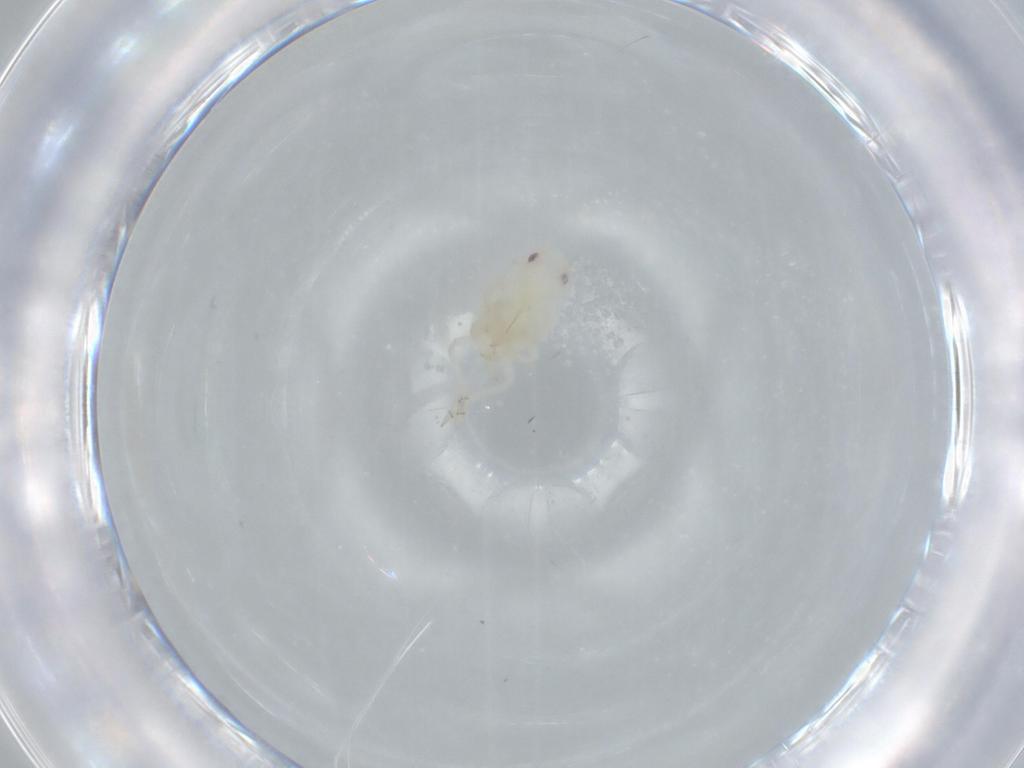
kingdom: Animalia
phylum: Arthropoda
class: Insecta
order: Hemiptera
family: Flatidae
